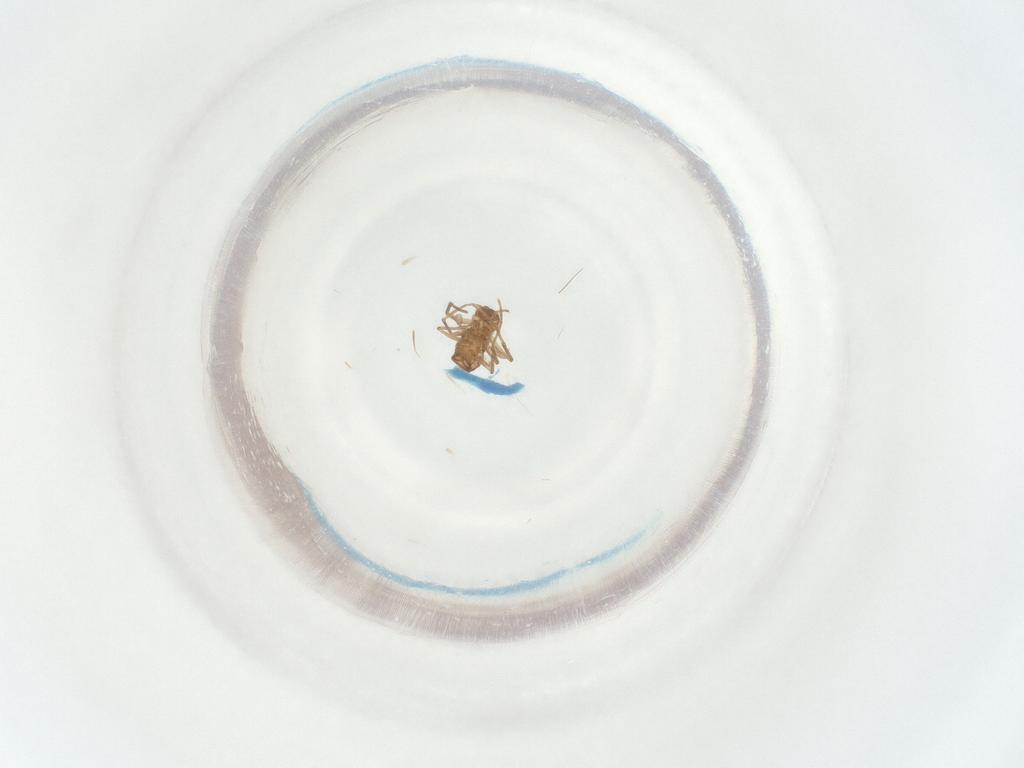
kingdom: Animalia
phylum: Arthropoda
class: Insecta
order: Diptera
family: Sciaridae
